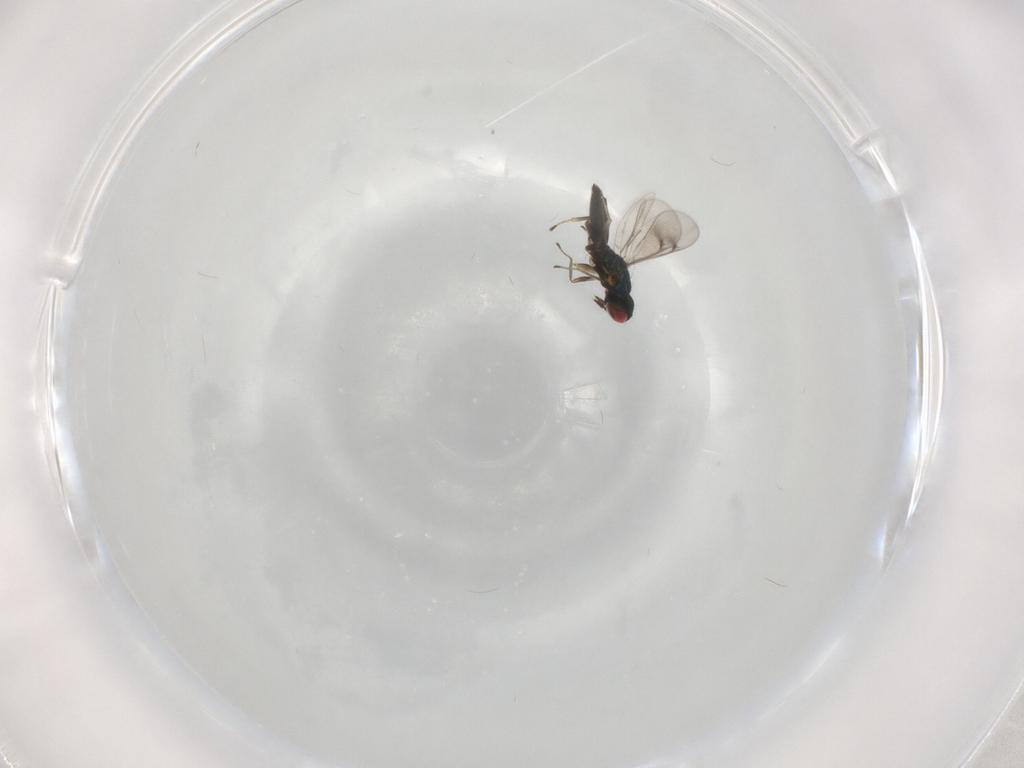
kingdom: Animalia
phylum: Arthropoda
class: Insecta
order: Hymenoptera
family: Eulophidae
